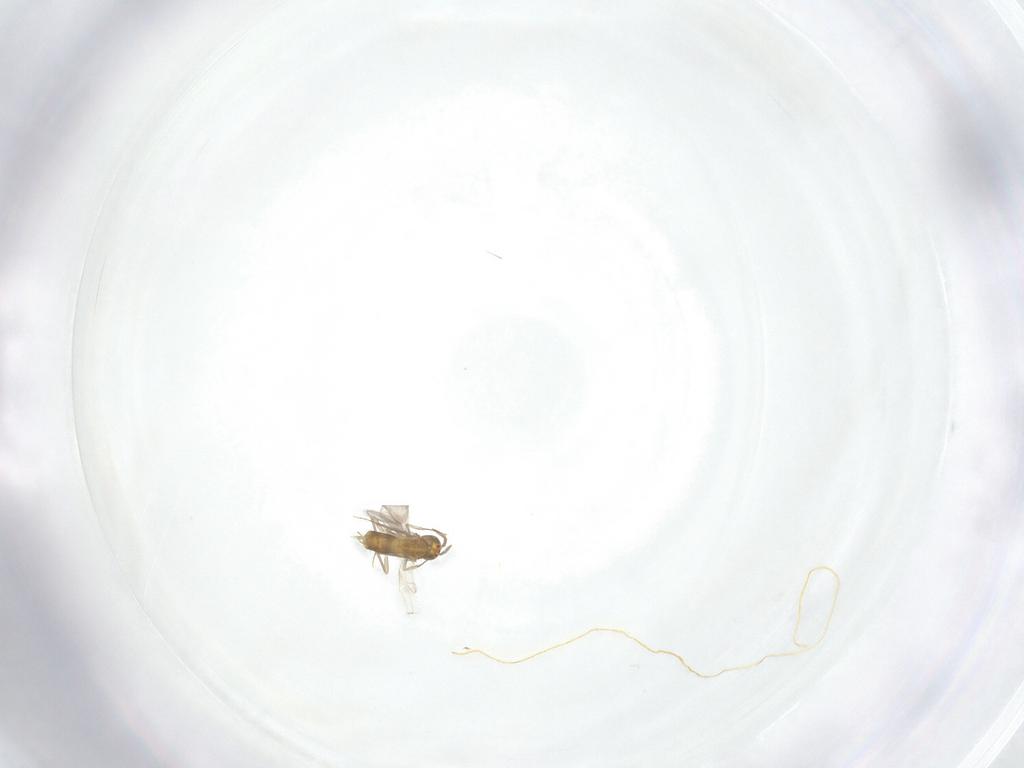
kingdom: Animalia
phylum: Arthropoda
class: Insecta
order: Hymenoptera
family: Aphelinidae
